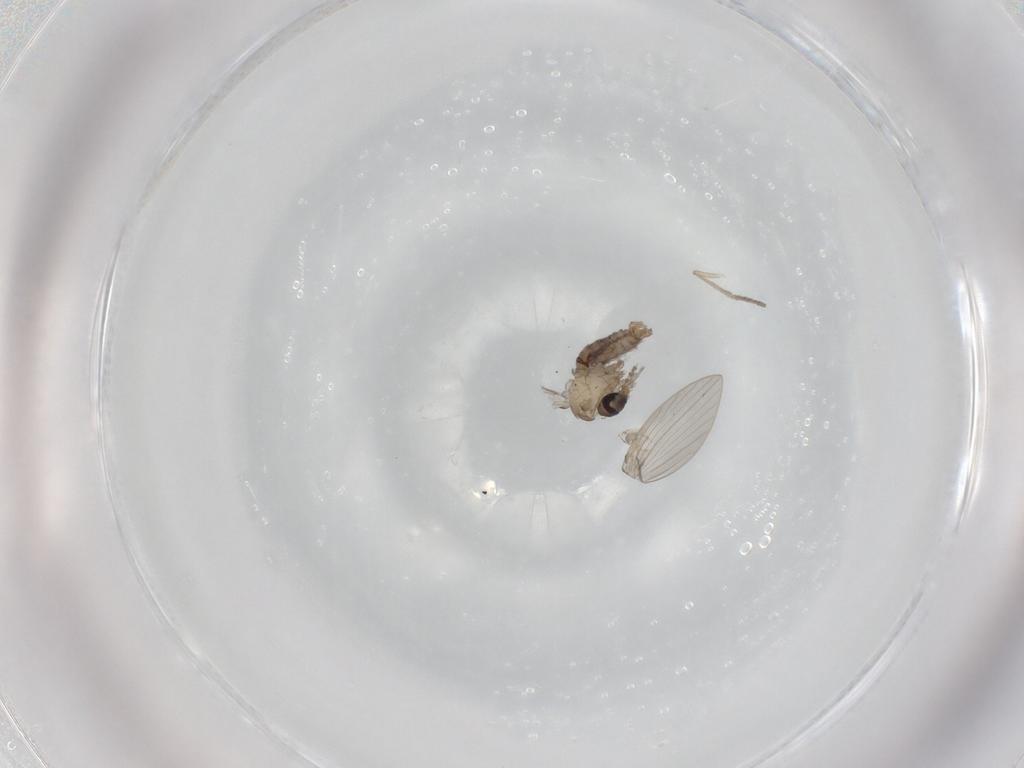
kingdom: Animalia
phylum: Arthropoda
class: Insecta
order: Diptera
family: Psychodidae
